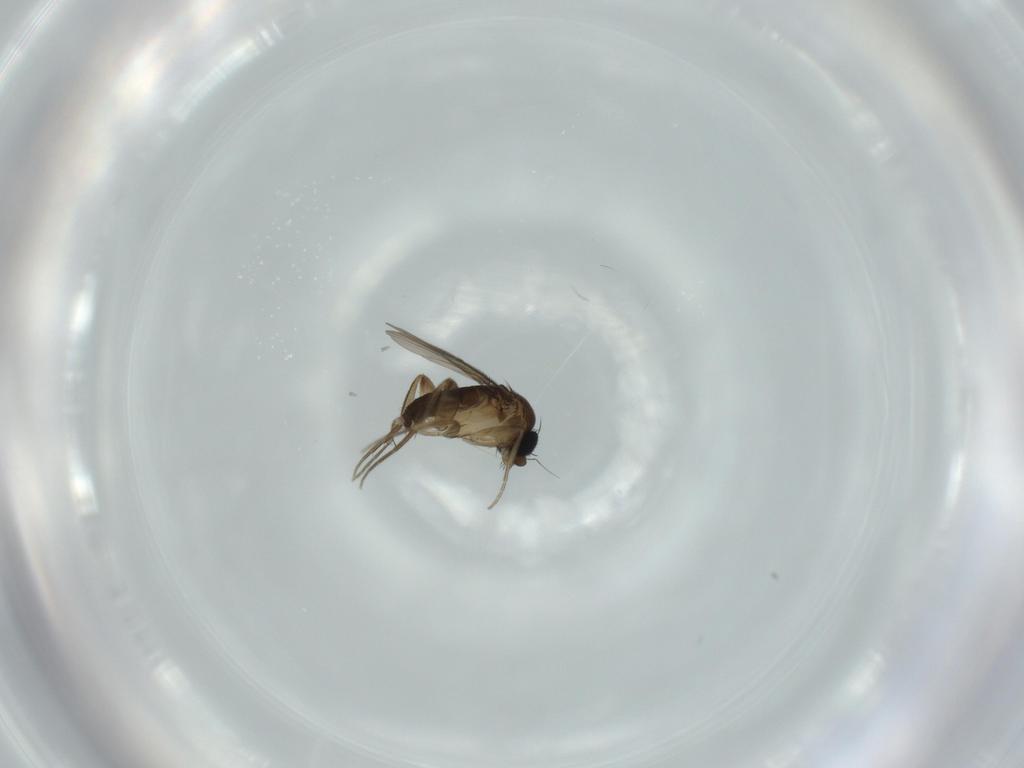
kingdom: Animalia
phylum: Arthropoda
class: Insecta
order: Diptera
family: Phoridae
